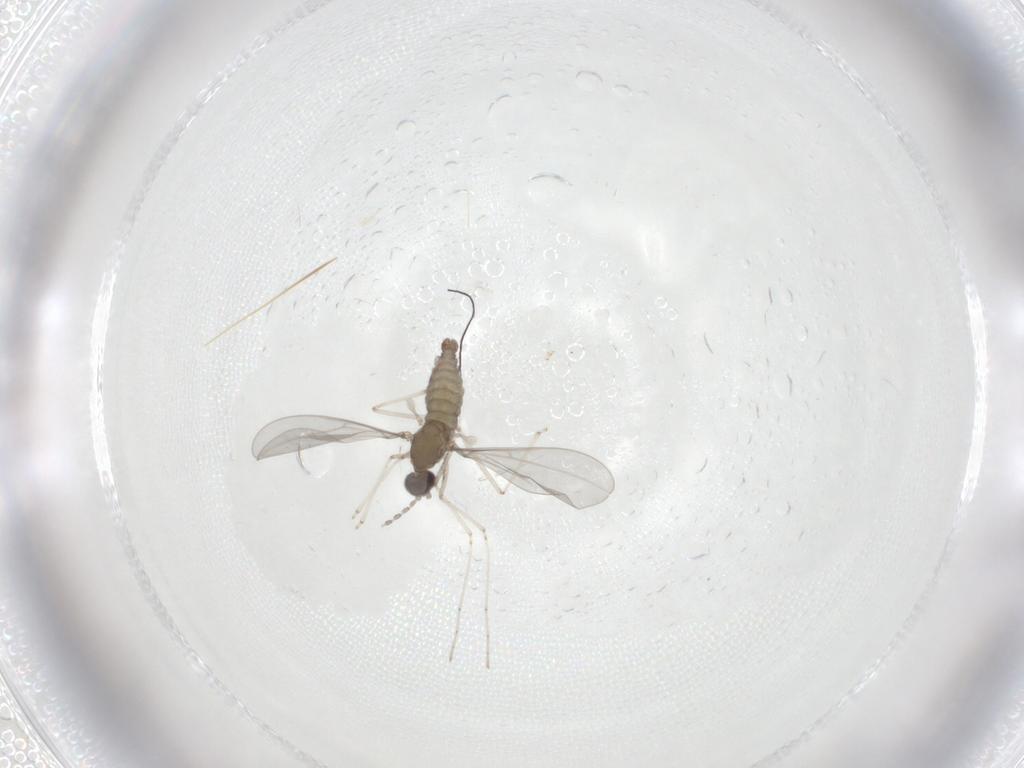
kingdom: Animalia
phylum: Arthropoda
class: Insecta
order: Diptera
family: Cecidomyiidae
